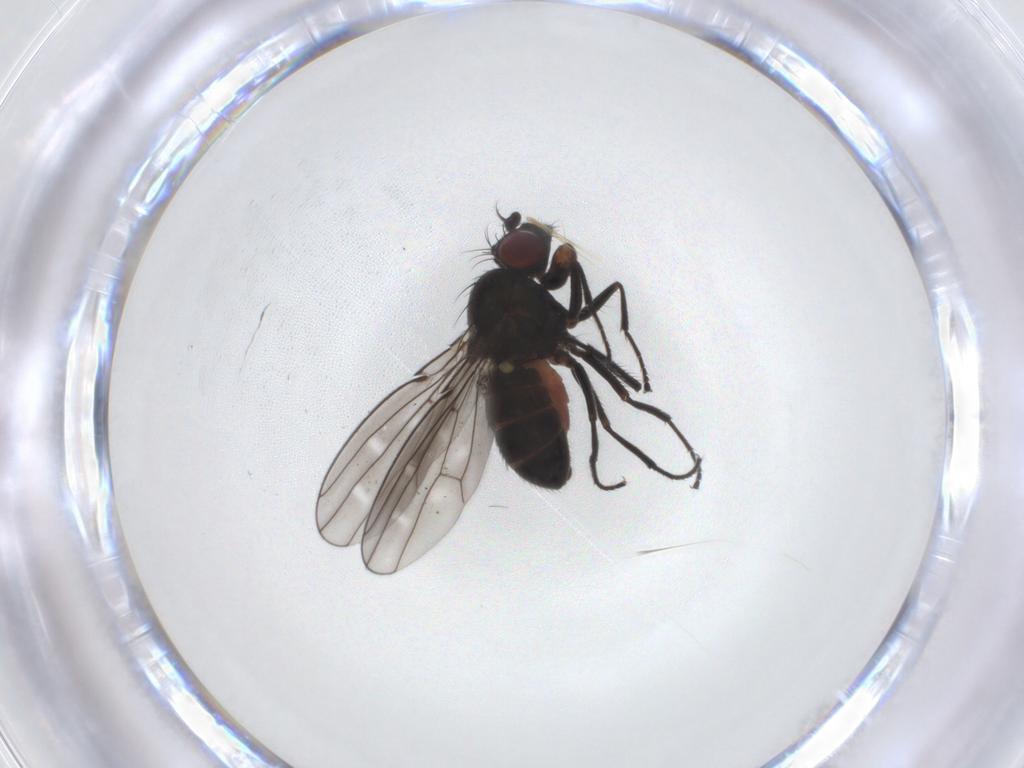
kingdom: Animalia
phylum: Arthropoda
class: Insecta
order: Diptera
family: Ephydridae
